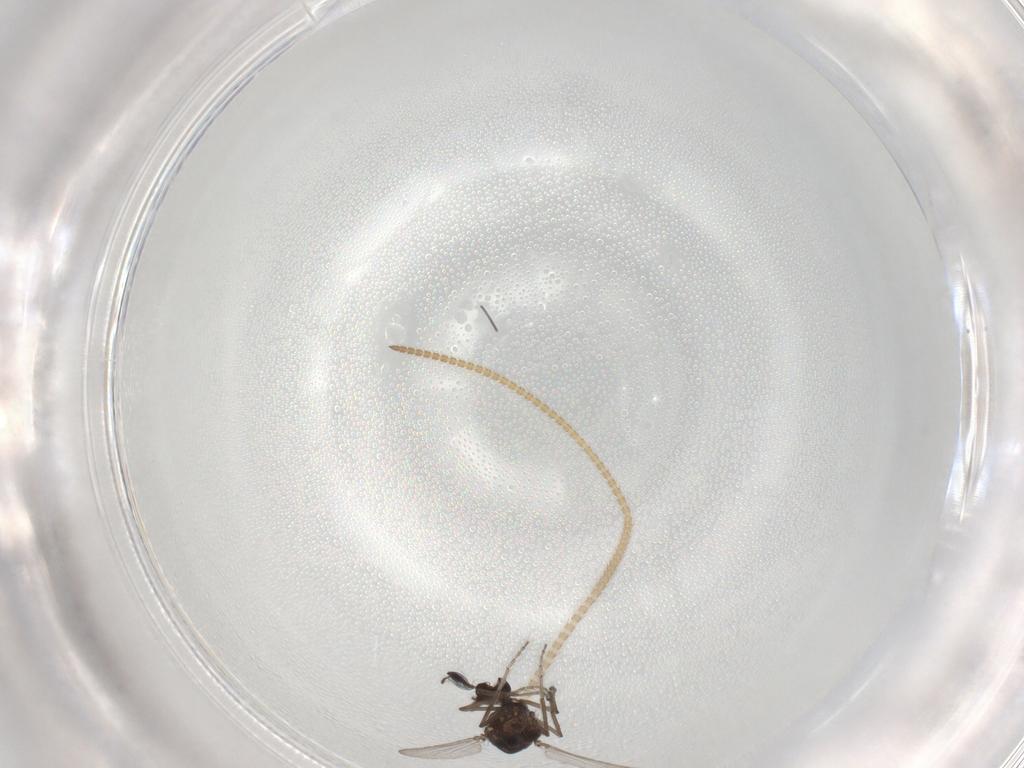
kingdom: Animalia
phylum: Arthropoda
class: Insecta
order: Diptera
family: Ceratopogonidae
